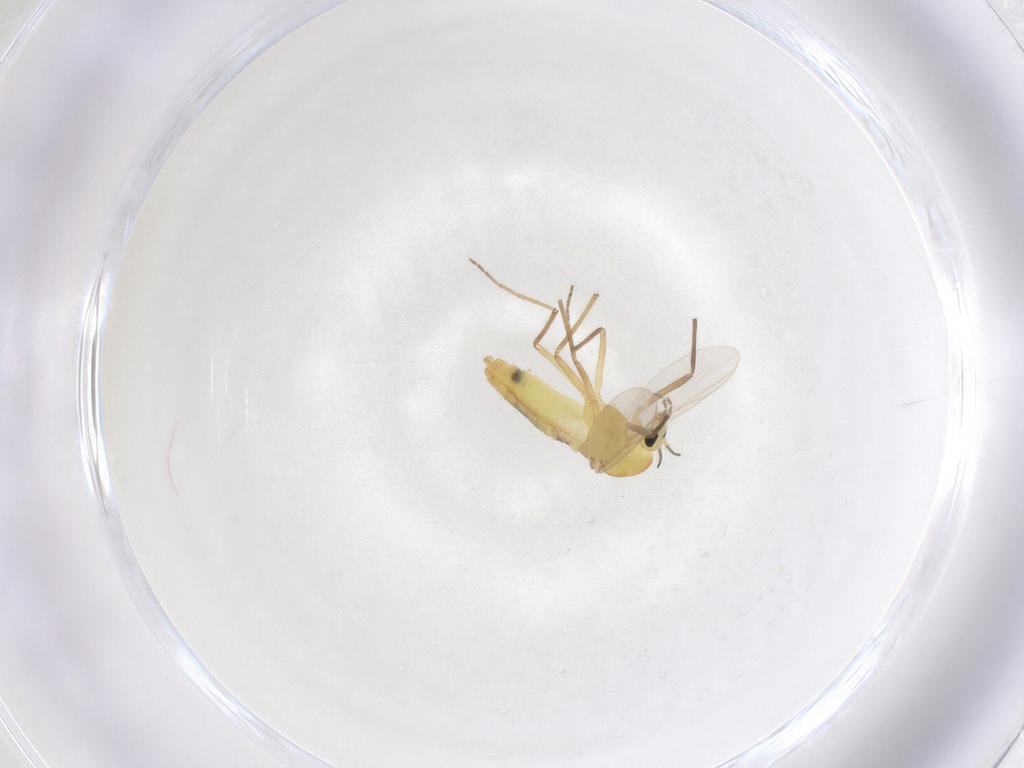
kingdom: Animalia
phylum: Arthropoda
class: Insecta
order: Diptera
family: Chironomidae
